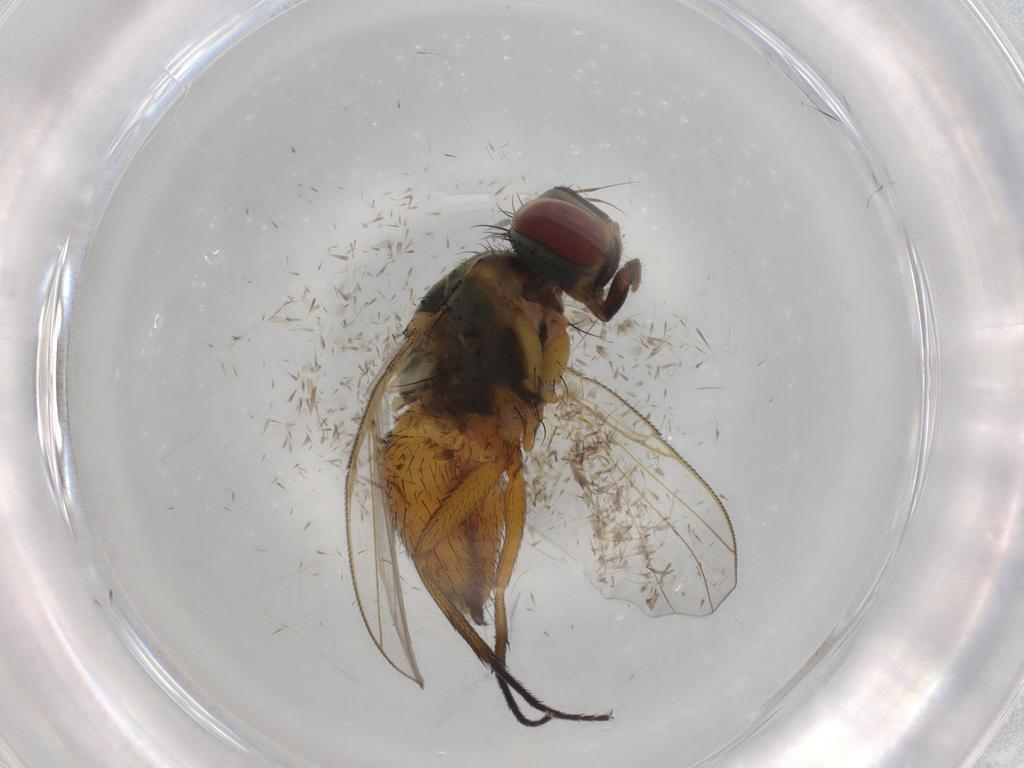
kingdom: Animalia
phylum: Arthropoda
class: Insecta
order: Diptera
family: Muscidae
